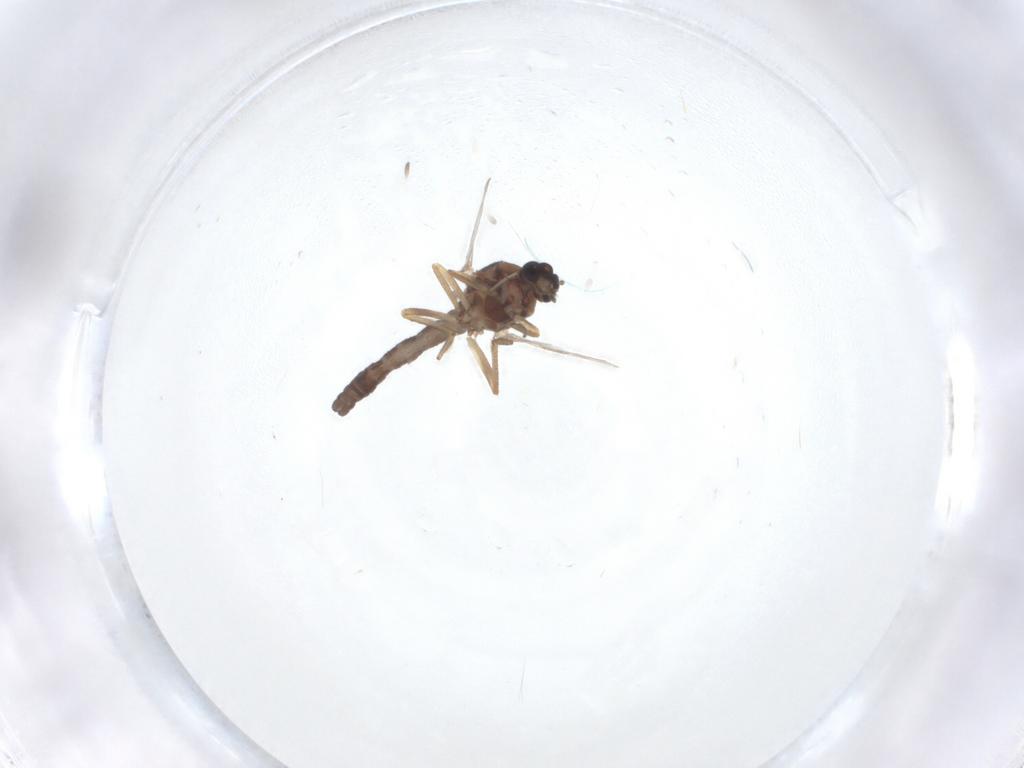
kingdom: Animalia
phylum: Arthropoda
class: Insecta
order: Diptera
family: Ceratopogonidae
